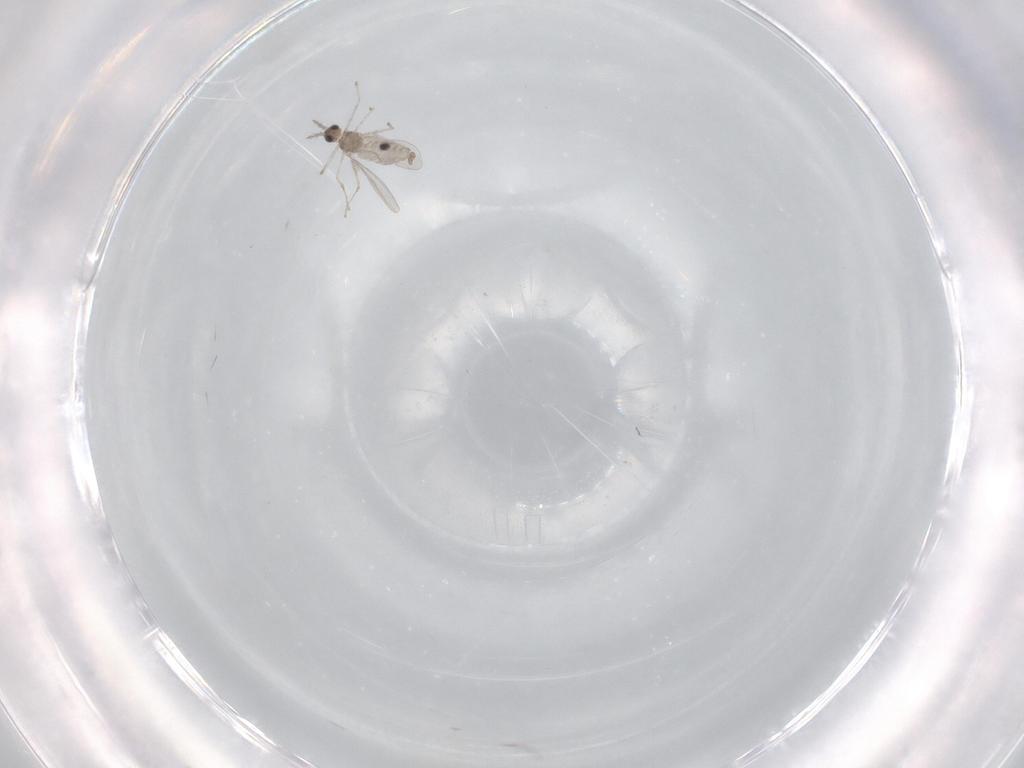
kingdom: Animalia
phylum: Arthropoda
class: Insecta
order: Diptera
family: Chironomidae
